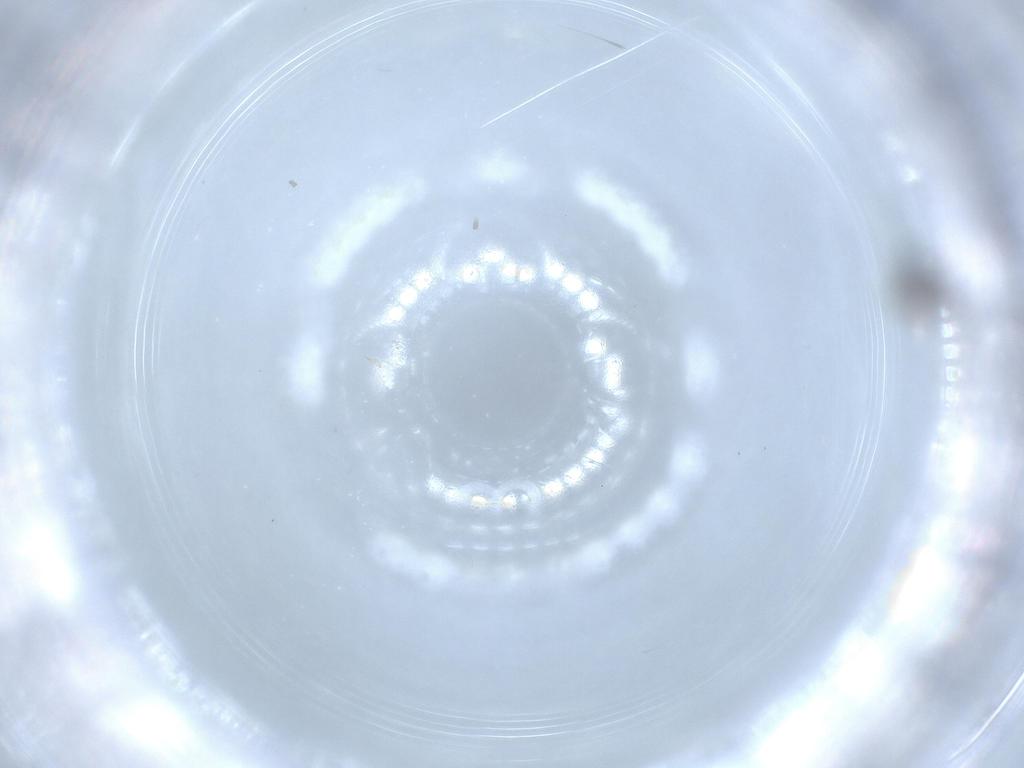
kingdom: Animalia
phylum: Arthropoda
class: Insecta
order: Diptera
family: Cecidomyiidae
